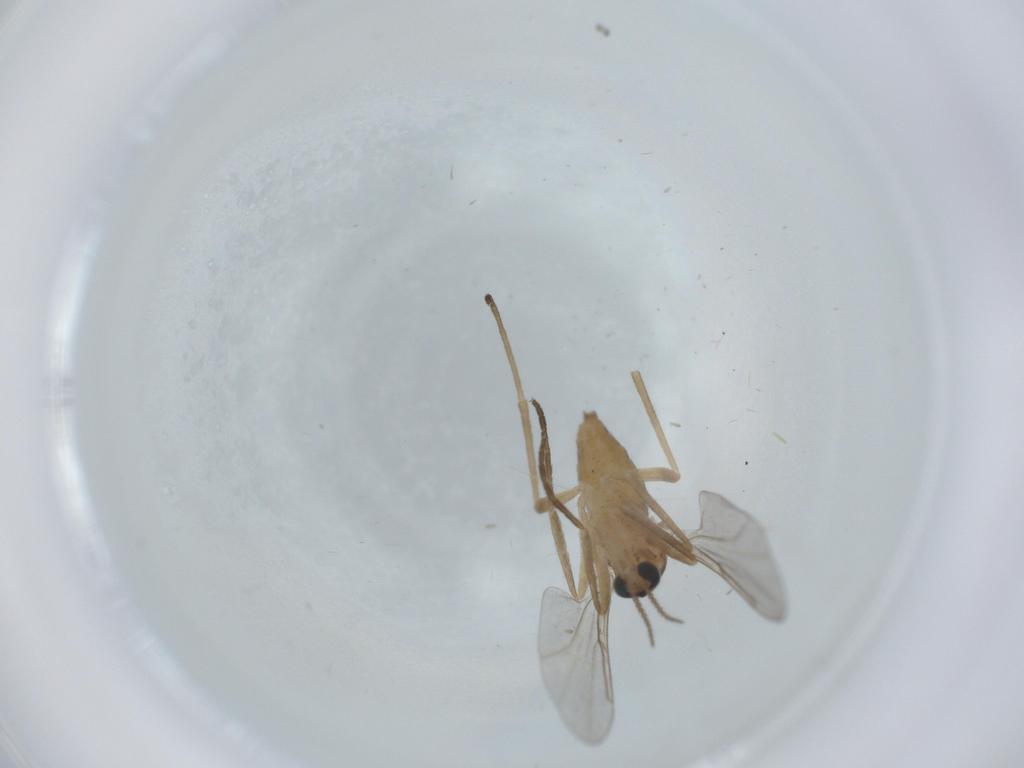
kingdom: Animalia
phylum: Arthropoda
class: Insecta
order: Diptera
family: Cecidomyiidae
